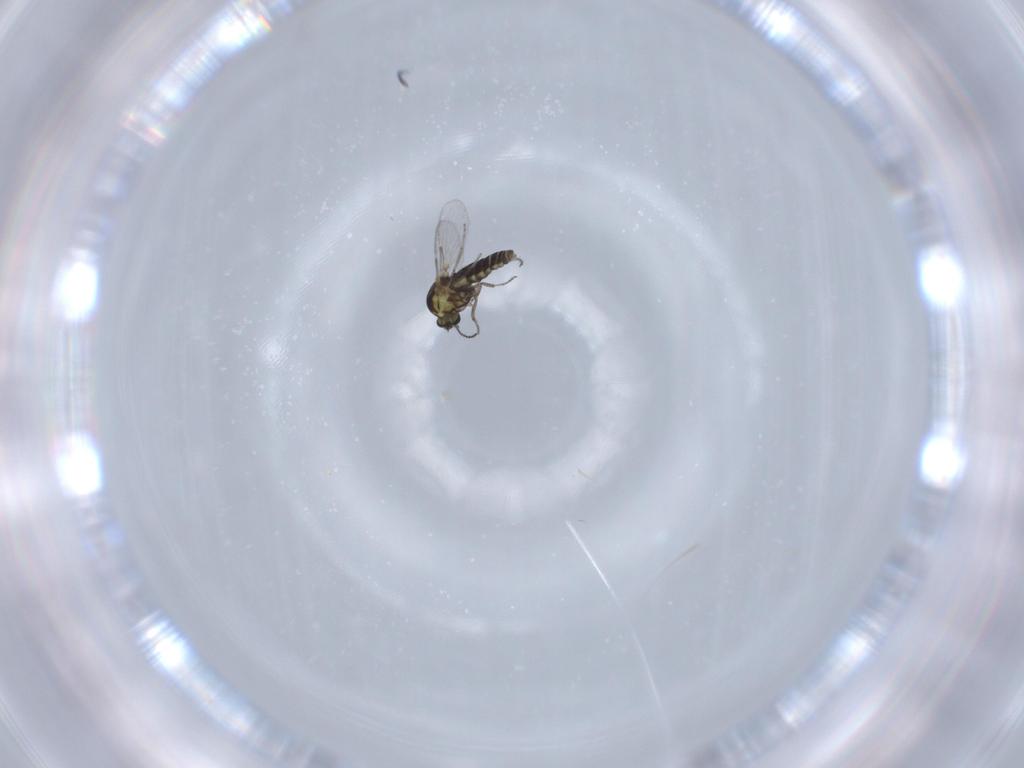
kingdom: Animalia
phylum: Arthropoda
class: Insecta
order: Diptera
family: Ceratopogonidae
